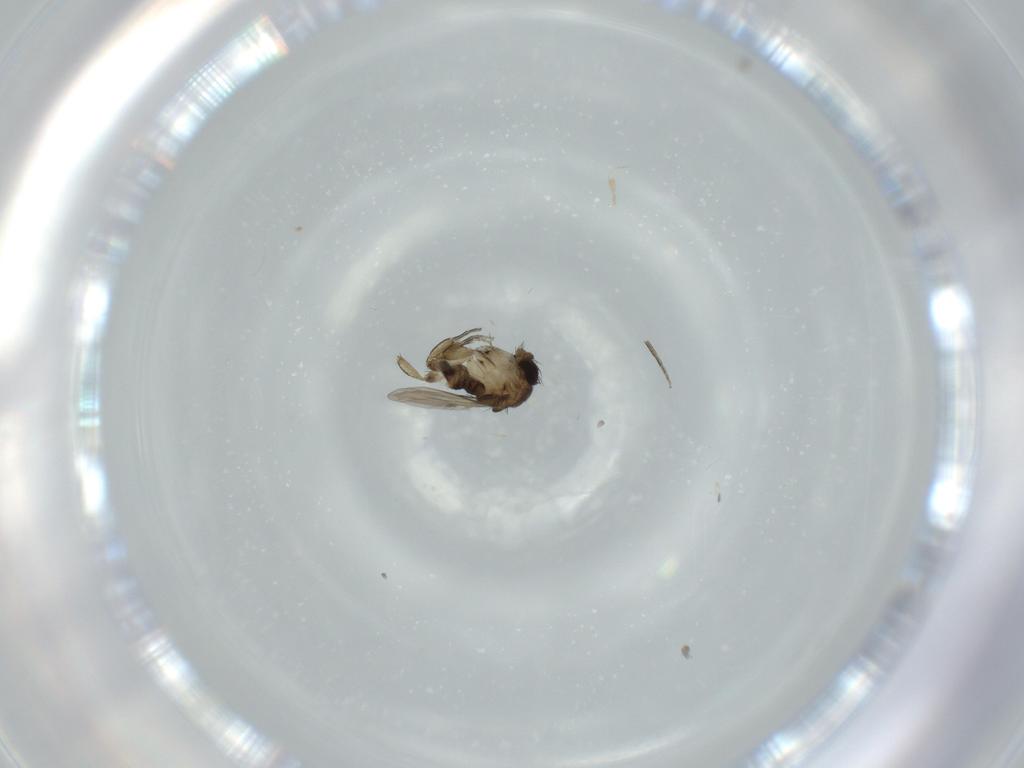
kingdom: Animalia
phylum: Arthropoda
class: Insecta
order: Diptera
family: Phoridae
